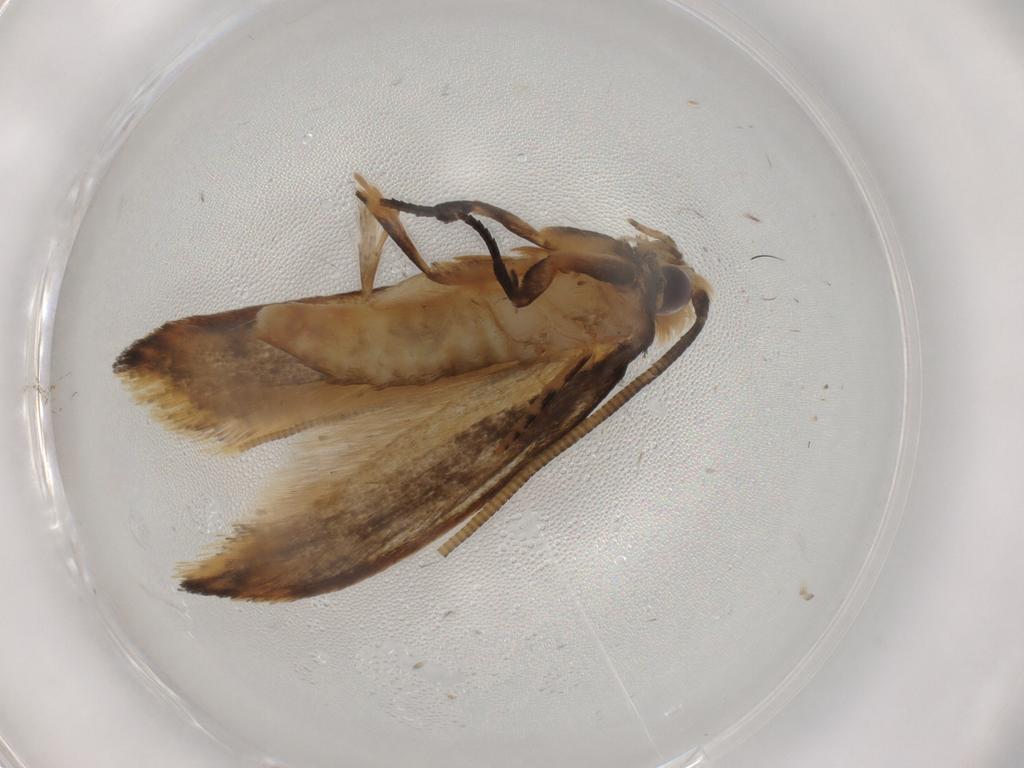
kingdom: Animalia
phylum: Arthropoda
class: Insecta
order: Lepidoptera
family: Tineidae
